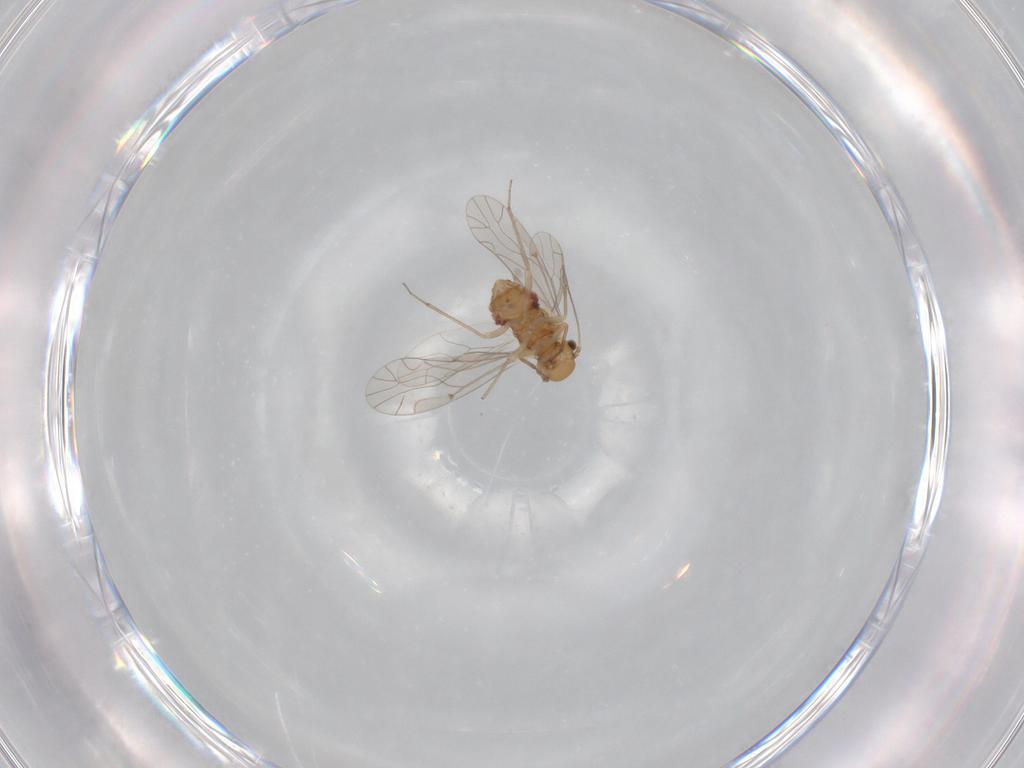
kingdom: Animalia
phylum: Arthropoda
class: Insecta
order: Psocodea
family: Lachesillidae
